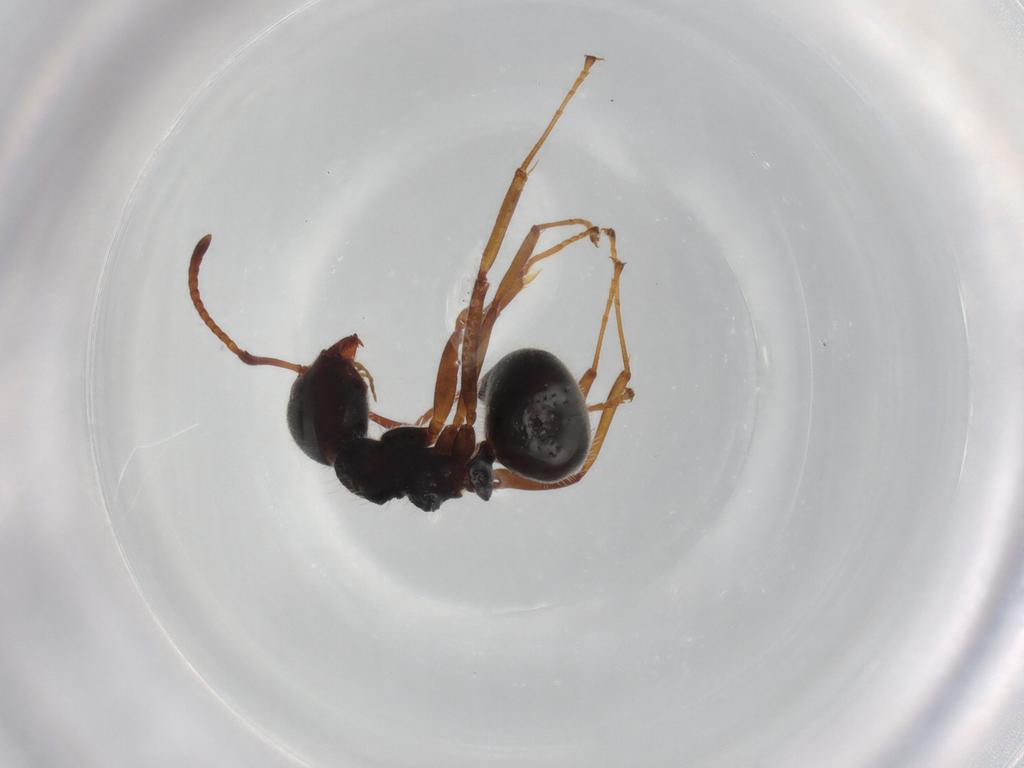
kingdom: Animalia
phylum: Arthropoda
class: Insecta
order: Hymenoptera
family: Formicidae
